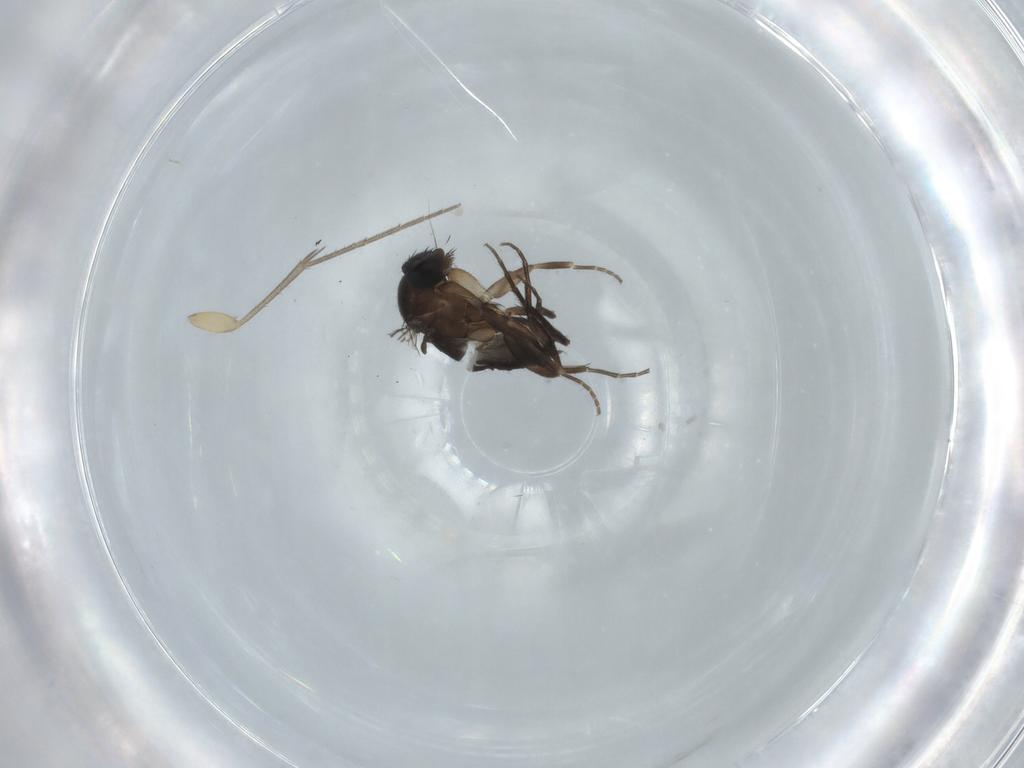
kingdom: Animalia
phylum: Arthropoda
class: Insecta
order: Diptera
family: Phoridae
